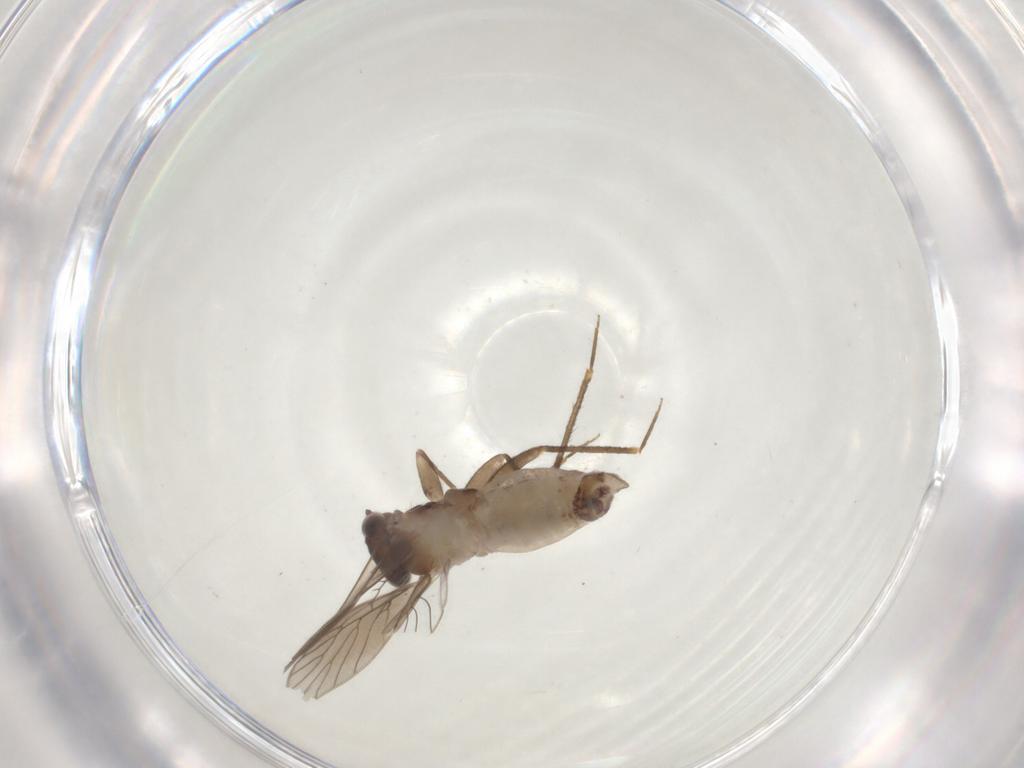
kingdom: Animalia
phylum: Arthropoda
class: Insecta
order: Psocodea
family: Lepidopsocidae
